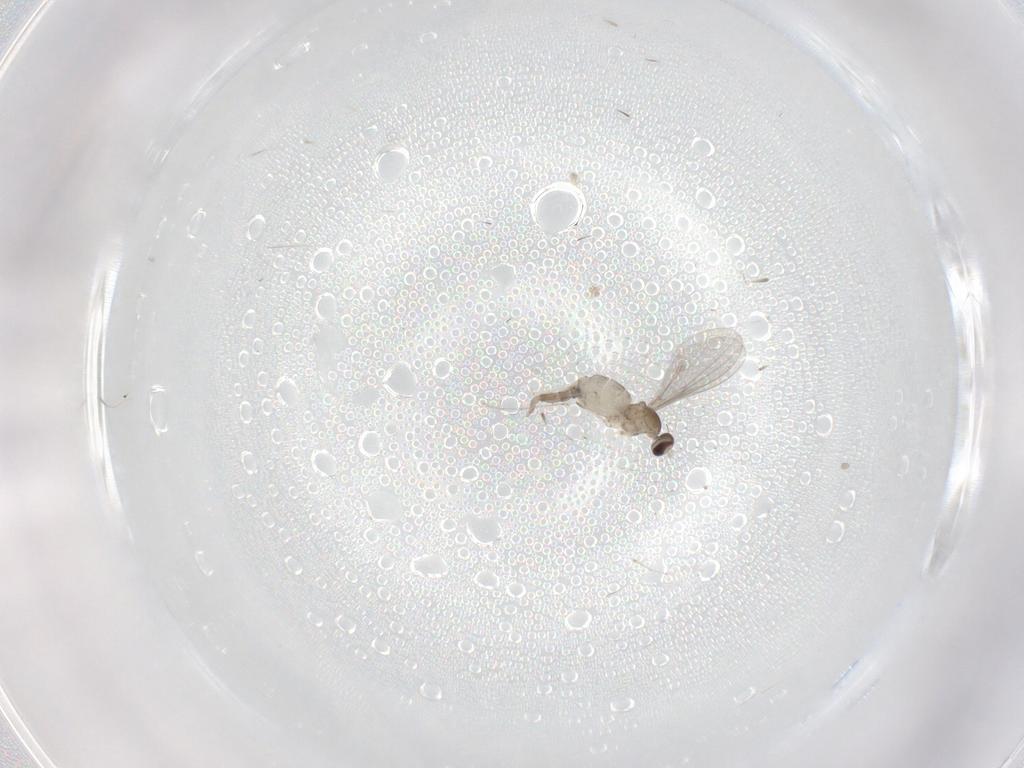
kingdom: Animalia
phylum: Arthropoda
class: Insecta
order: Diptera
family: Cecidomyiidae
